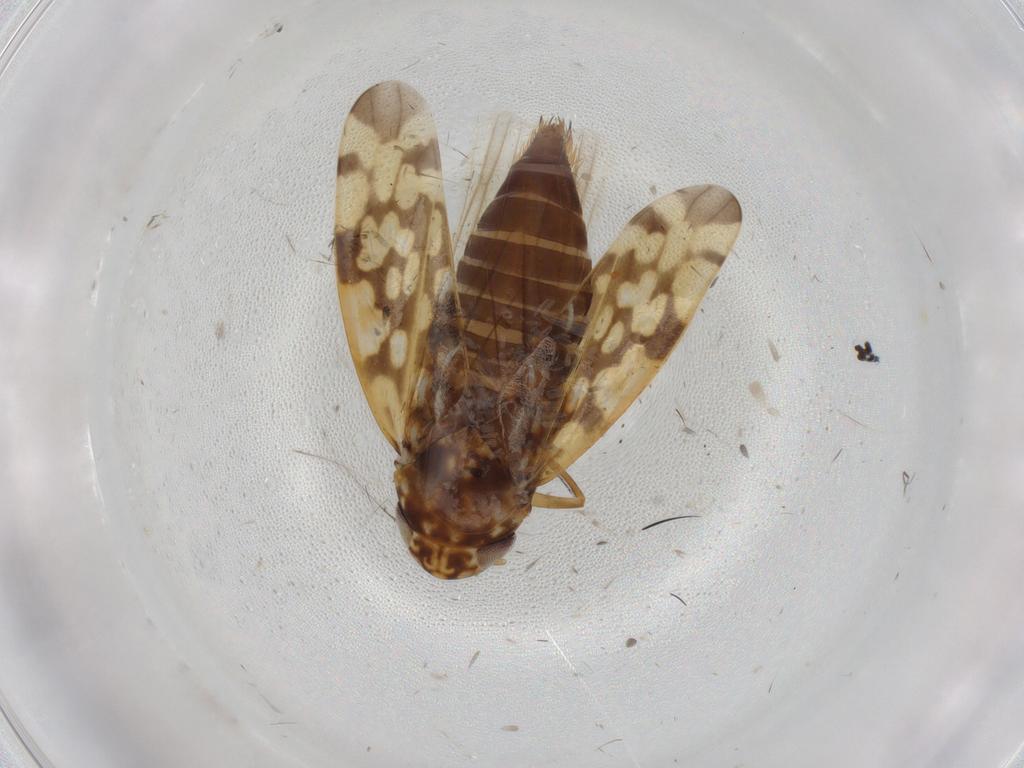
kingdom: Animalia
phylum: Arthropoda
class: Insecta
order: Hemiptera
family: Cicadellidae
